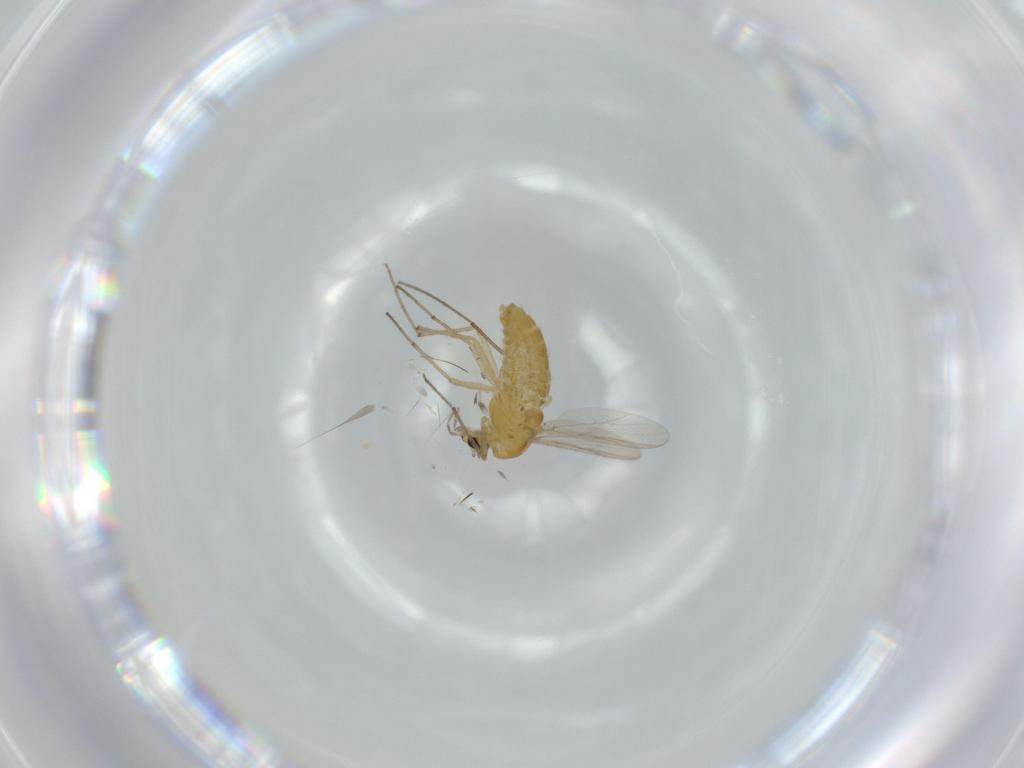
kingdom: Animalia
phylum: Arthropoda
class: Insecta
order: Diptera
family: Chironomidae
